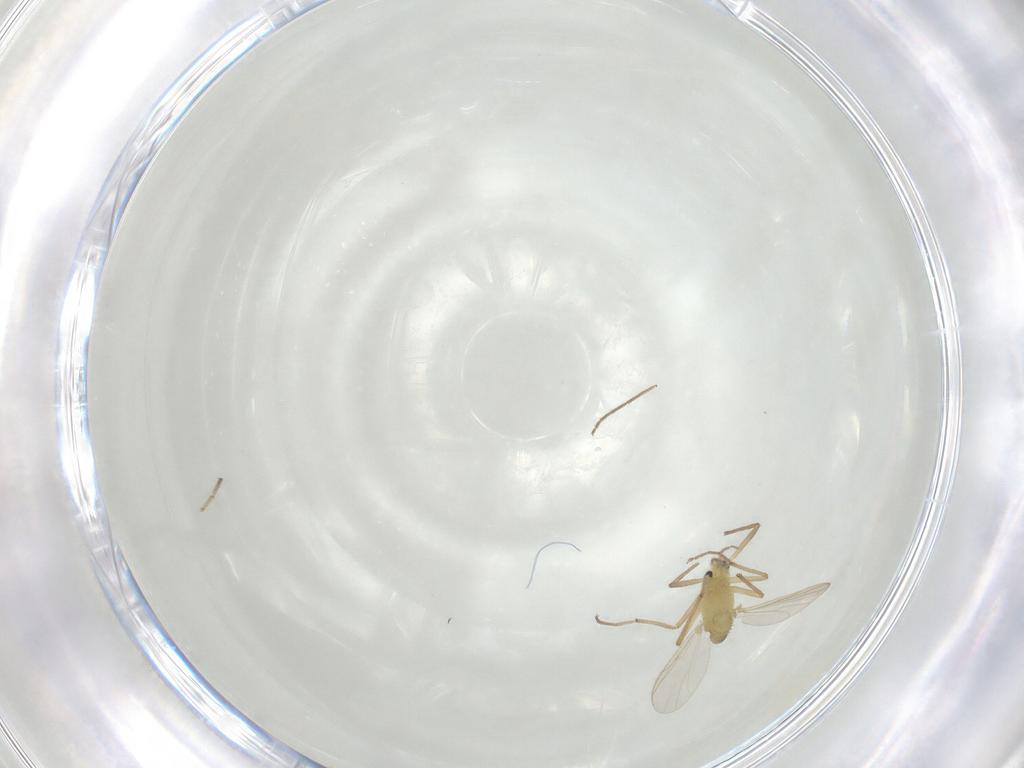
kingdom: Animalia
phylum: Arthropoda
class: Insecta
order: Diptera
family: Chironomidae
